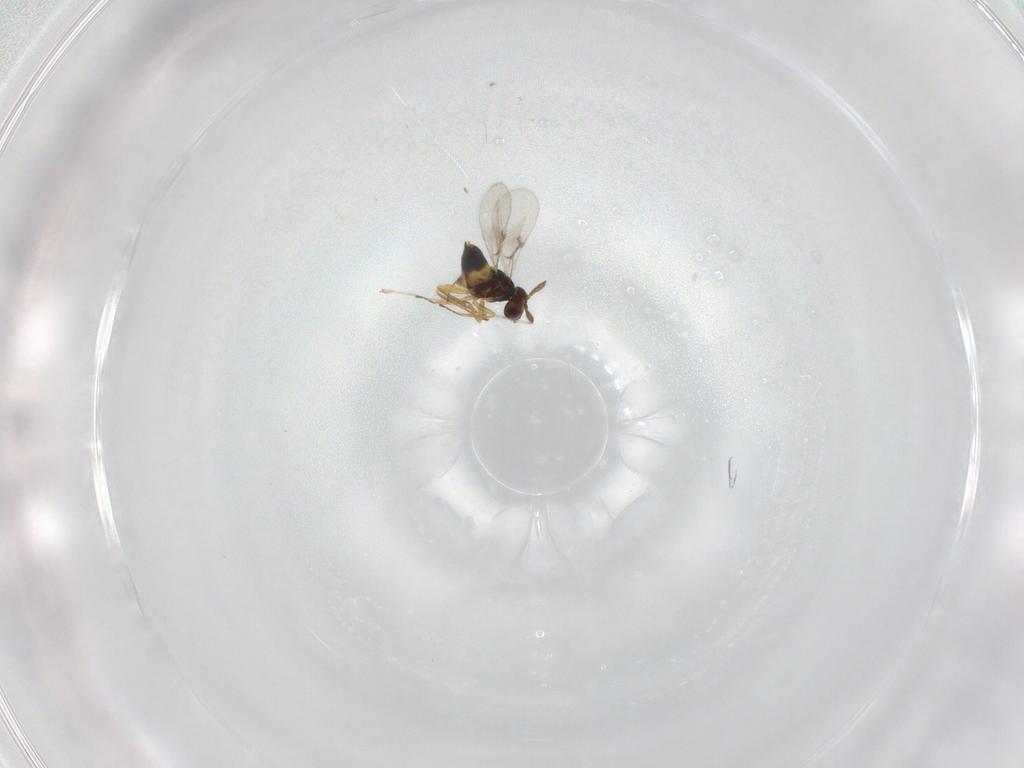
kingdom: Animalia
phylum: Arthropoda
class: Insecta
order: Hymenoptera
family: Eulophidae
